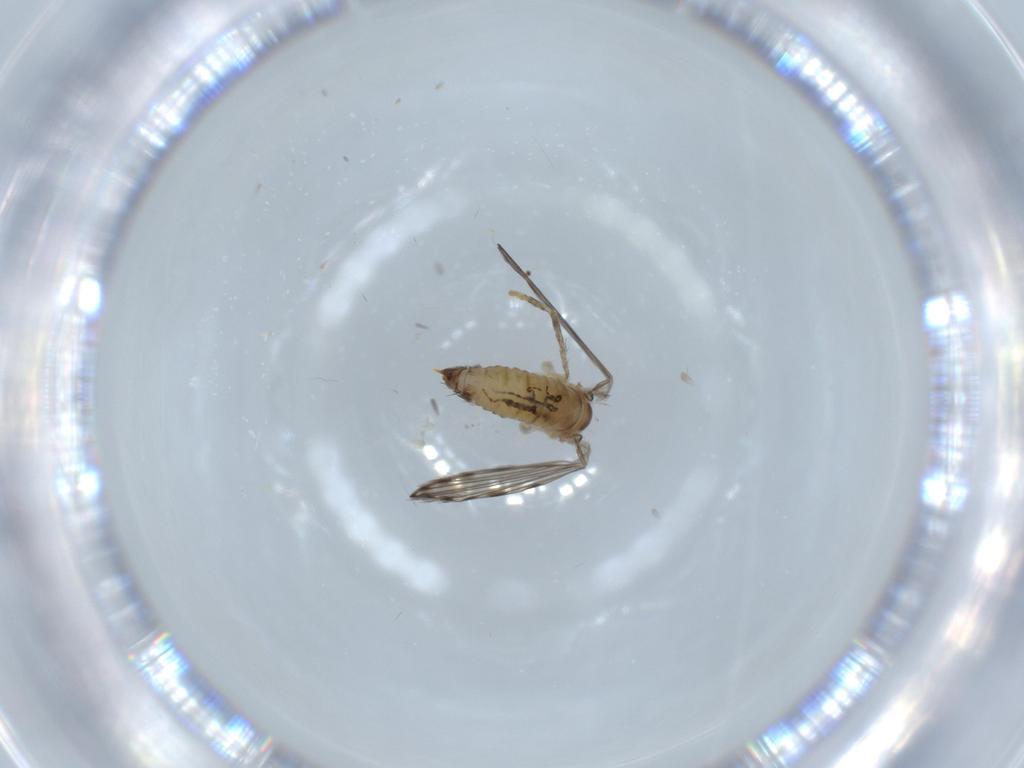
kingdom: Animalia
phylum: Arthropoda
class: Insecta
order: Diptera
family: Psychodidae
